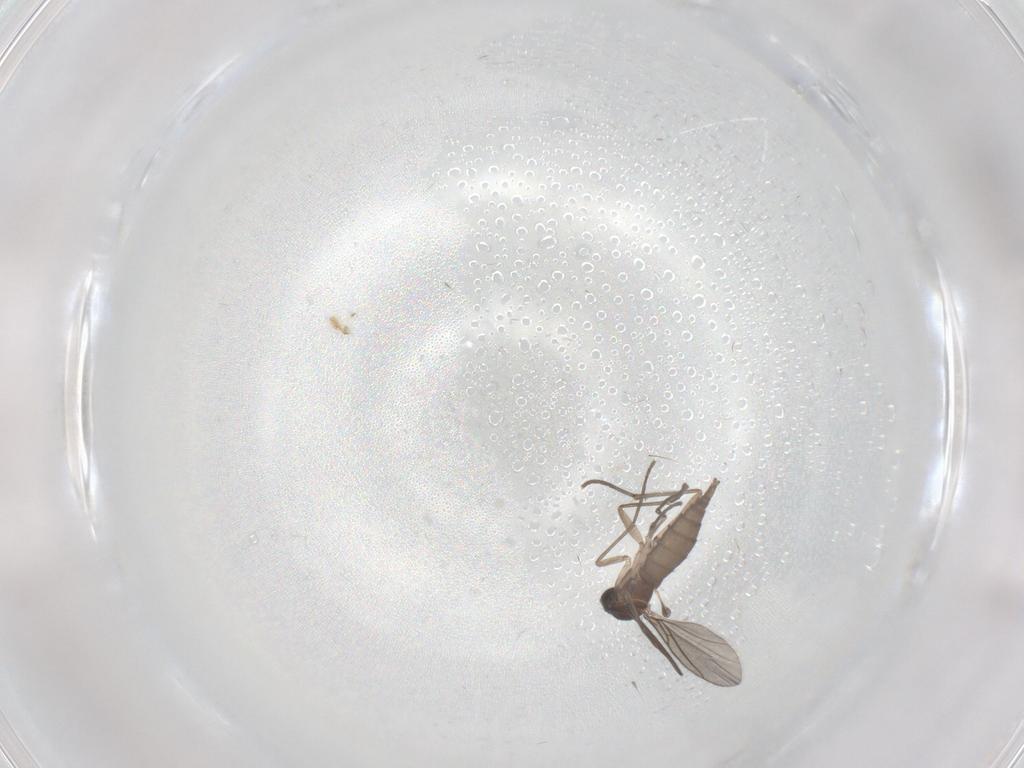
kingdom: Animalia
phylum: Arthropoda
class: Insecta
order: Diptera
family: Sciaridae
